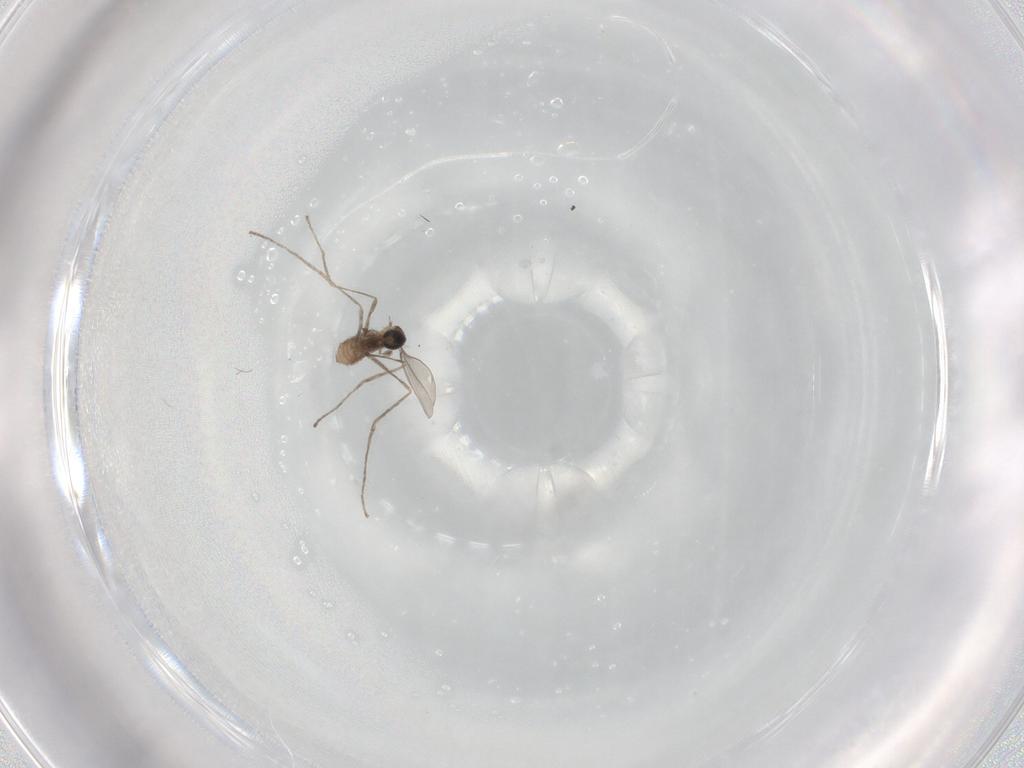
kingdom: Animalia
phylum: Arthropoda
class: Insecta
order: Diptera
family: Cecidomyiidae
